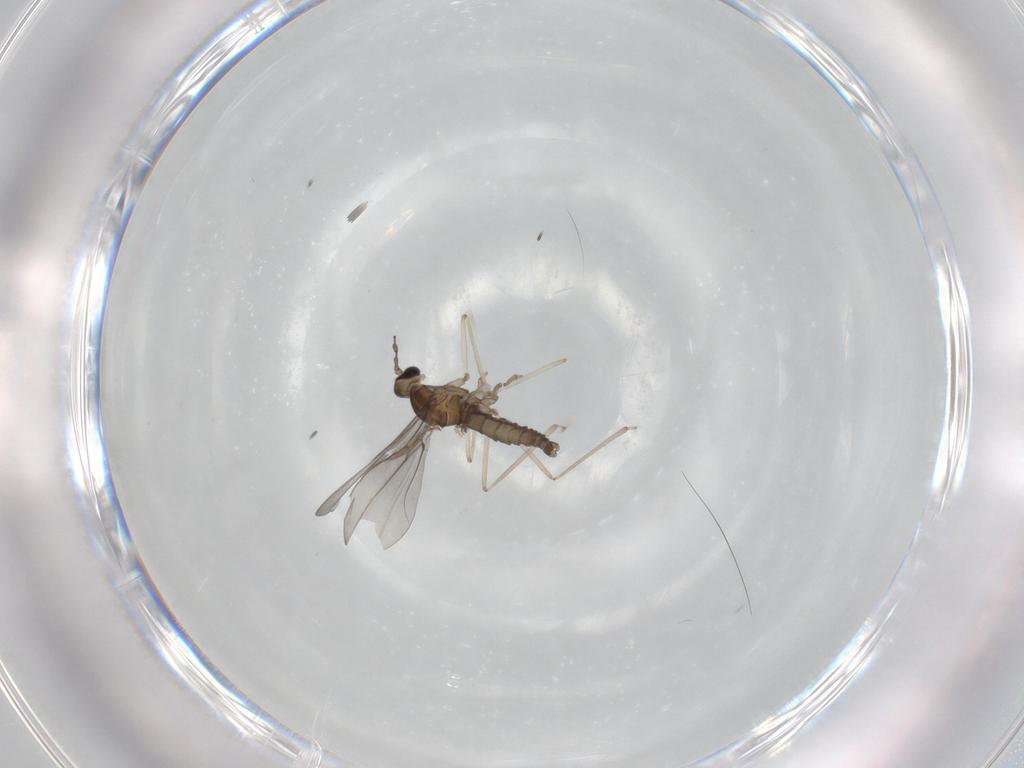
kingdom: Animalia
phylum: Arthropoda
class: Insecta
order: Diptera
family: Cecidomyiidae
